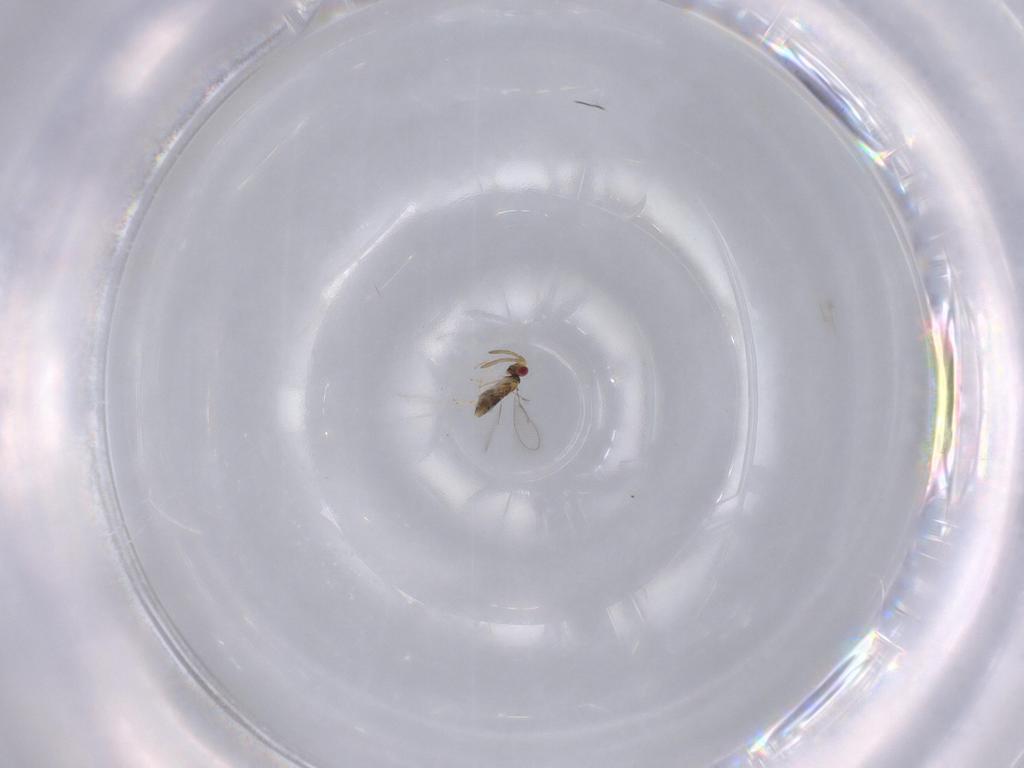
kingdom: Animalia
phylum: Arthropoda
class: Insecta
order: Hymenoptera
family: Aphelinidae
